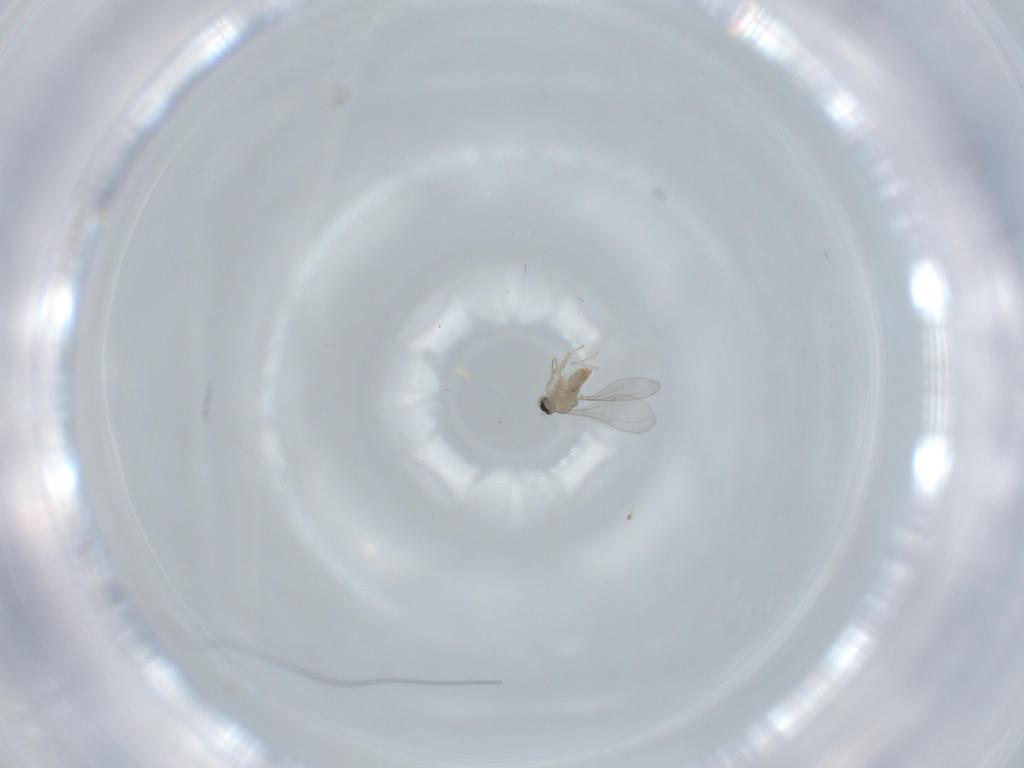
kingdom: Animalia
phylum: Arthropoda
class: Insecta
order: Diptera
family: Cecidomyiidae
